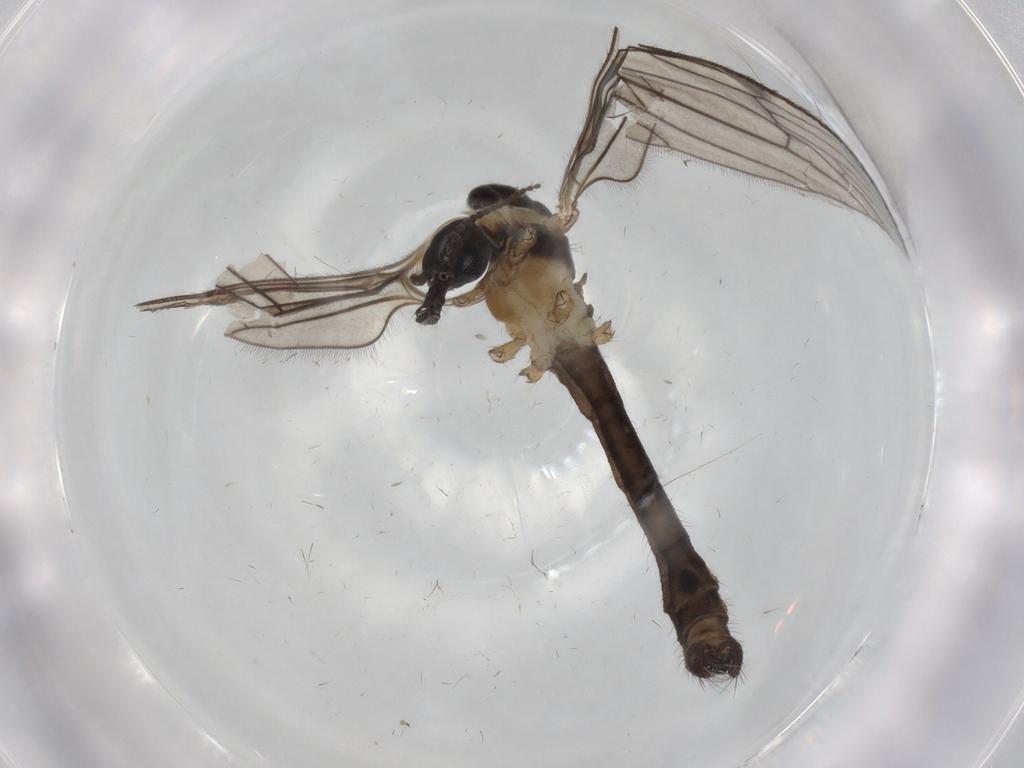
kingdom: Animalia
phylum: Arthropoda
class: Insecta
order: Diptera
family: Limoniidae
